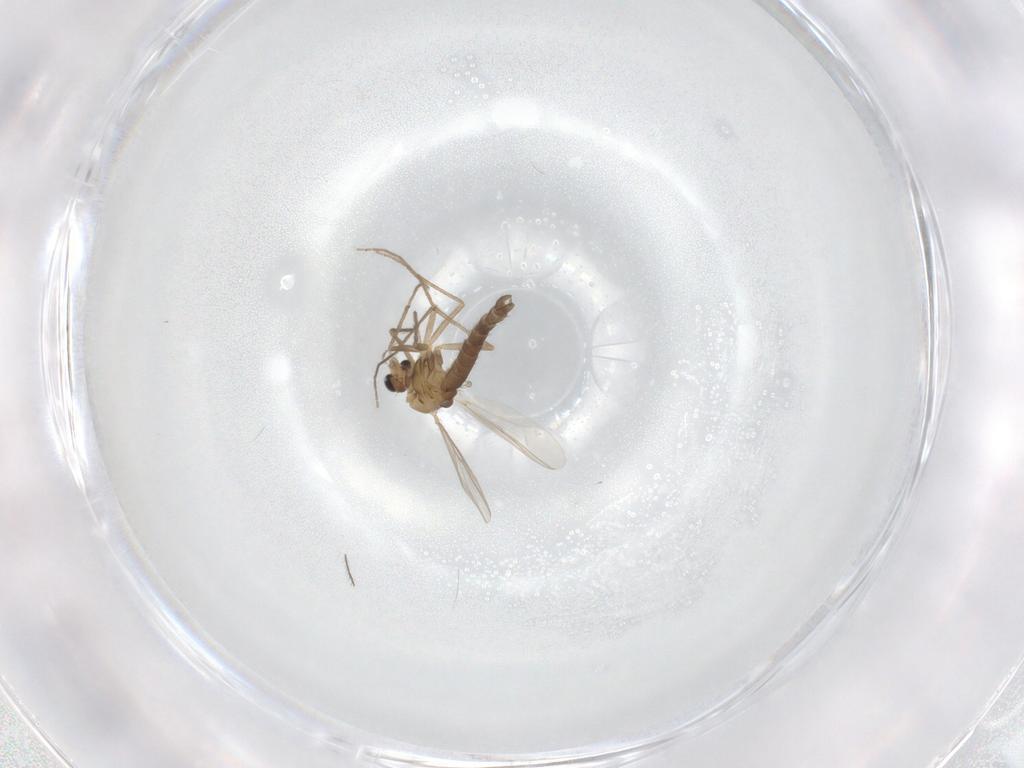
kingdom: Animalia
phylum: Arthropoda
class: Insecta
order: Diptera
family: Chironomidae
